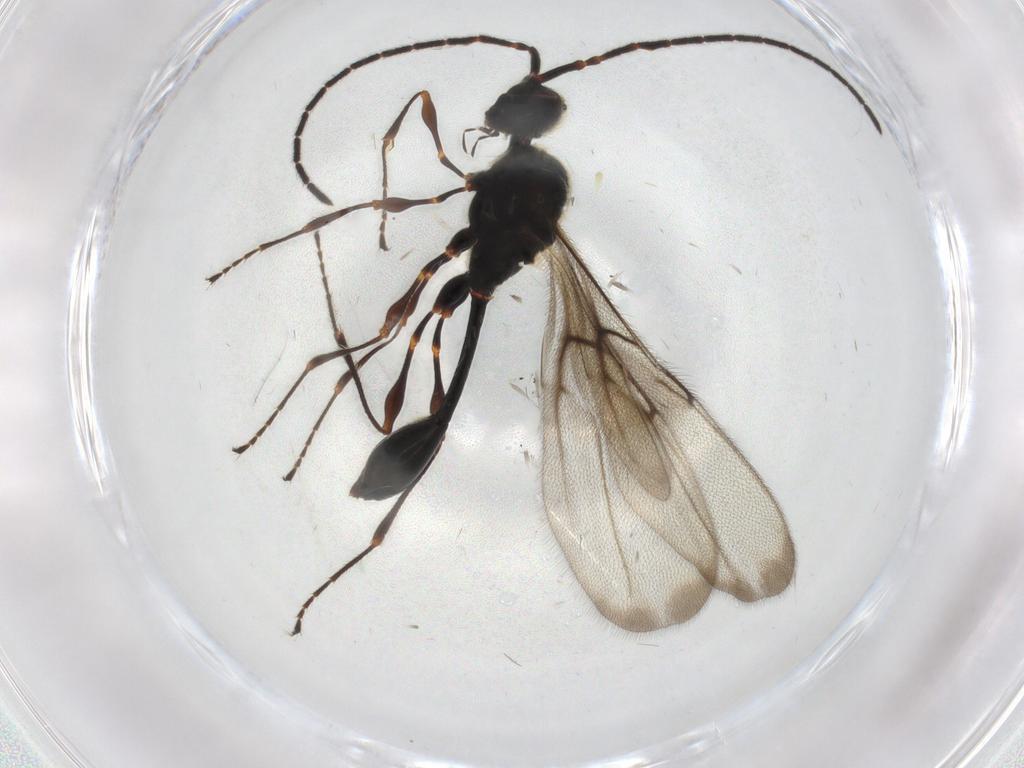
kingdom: Animalia
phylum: Arthropoda
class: Insecta
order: Hymenoptera
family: Diapriidae
